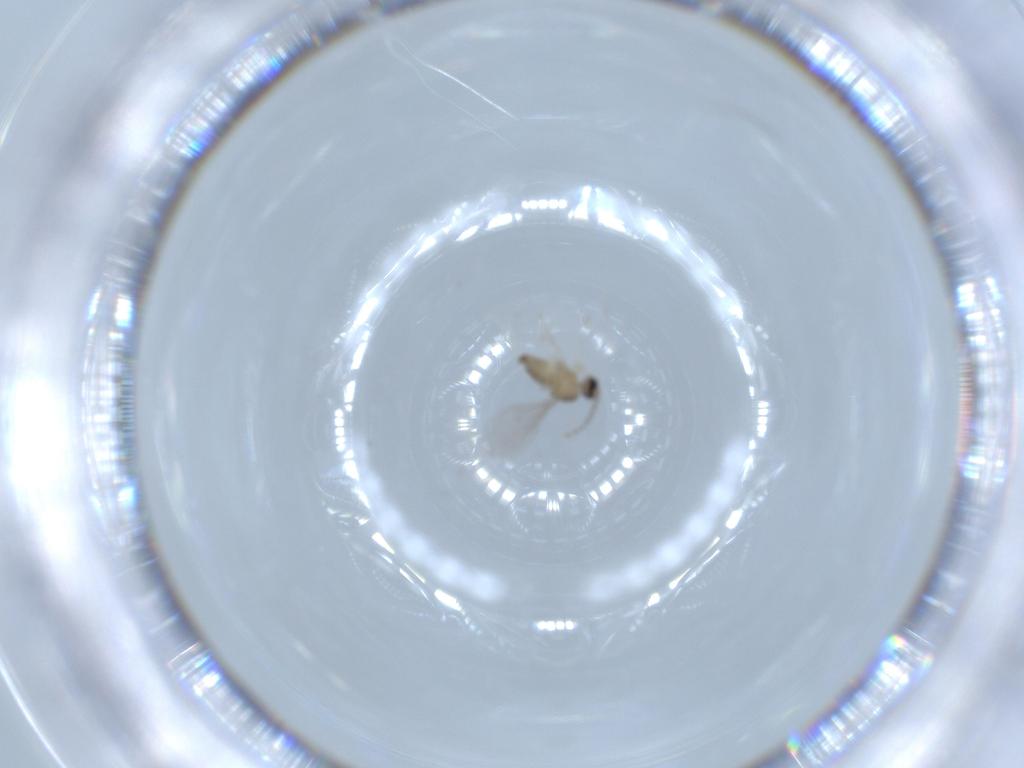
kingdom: Animalia
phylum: Arthropoda
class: Insecta
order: Diptera
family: Cecidomyiidae
